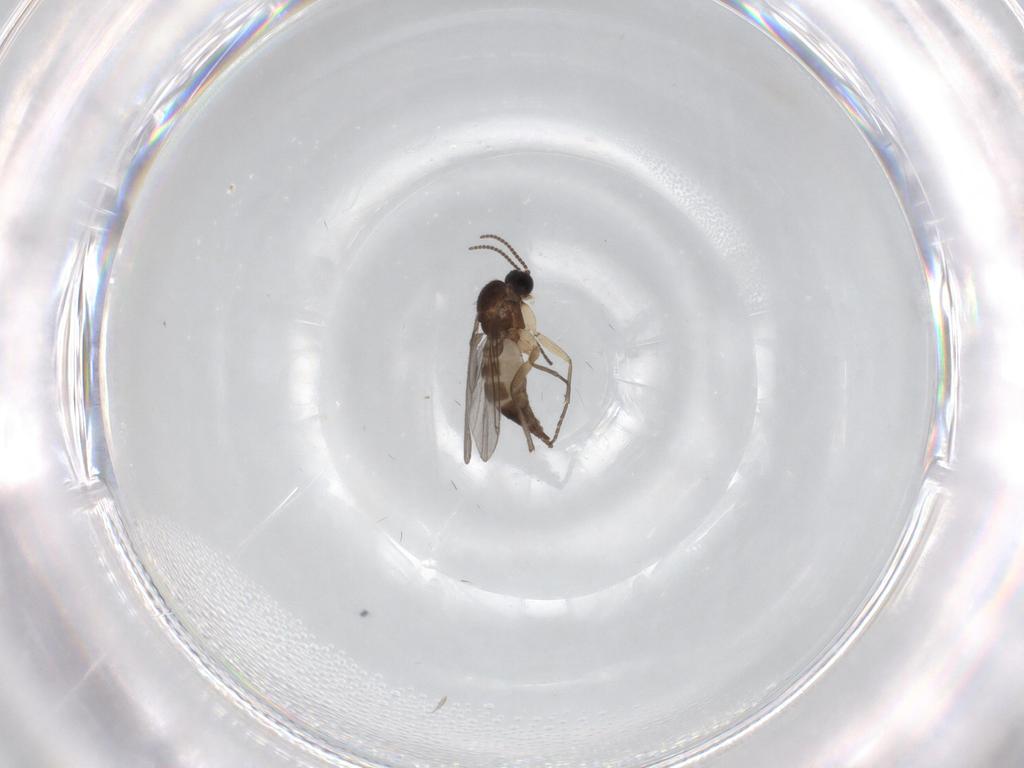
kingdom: Animalia
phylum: Arthropoda
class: Insecta
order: Diptera
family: Sciaridae
